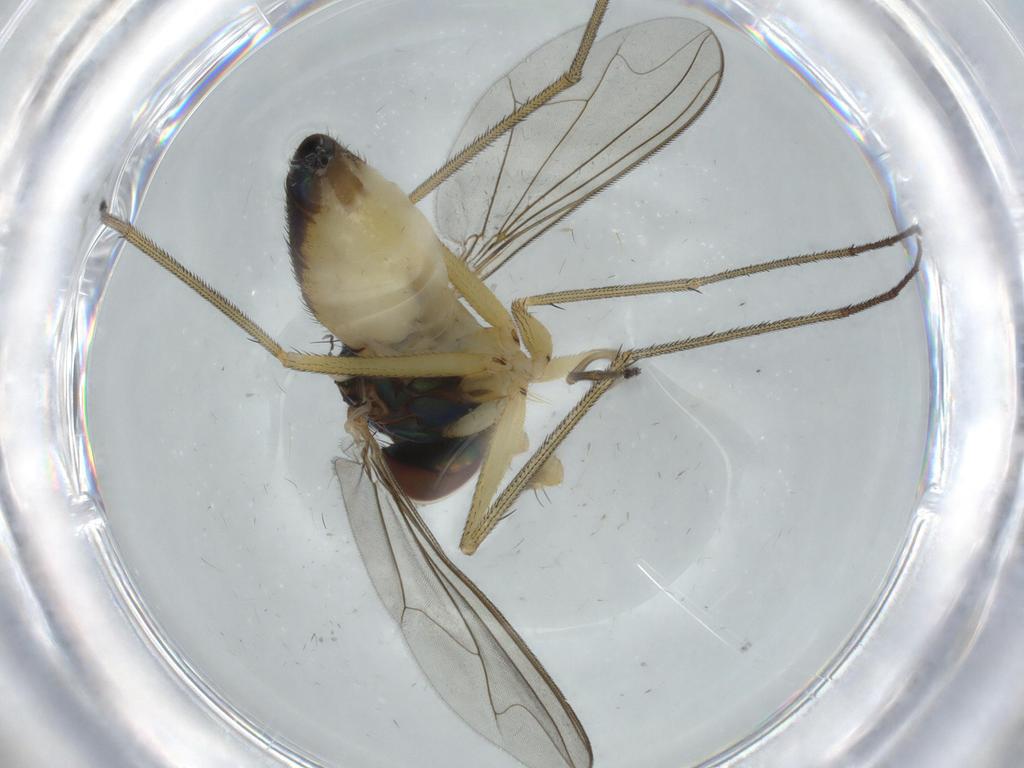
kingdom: Animalia
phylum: Arthropoda
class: Insecta
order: Diptera
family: Dolichopodidae
